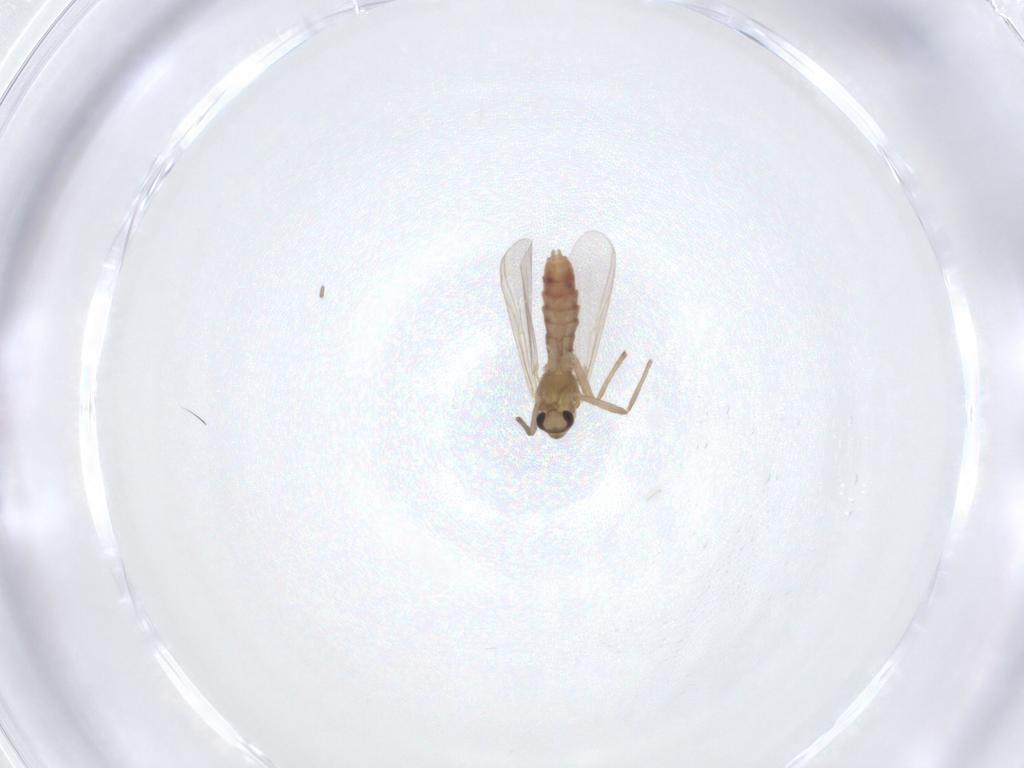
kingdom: Animalia
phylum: Arthropoda
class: Insecta
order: Diptera
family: Chironomidae
